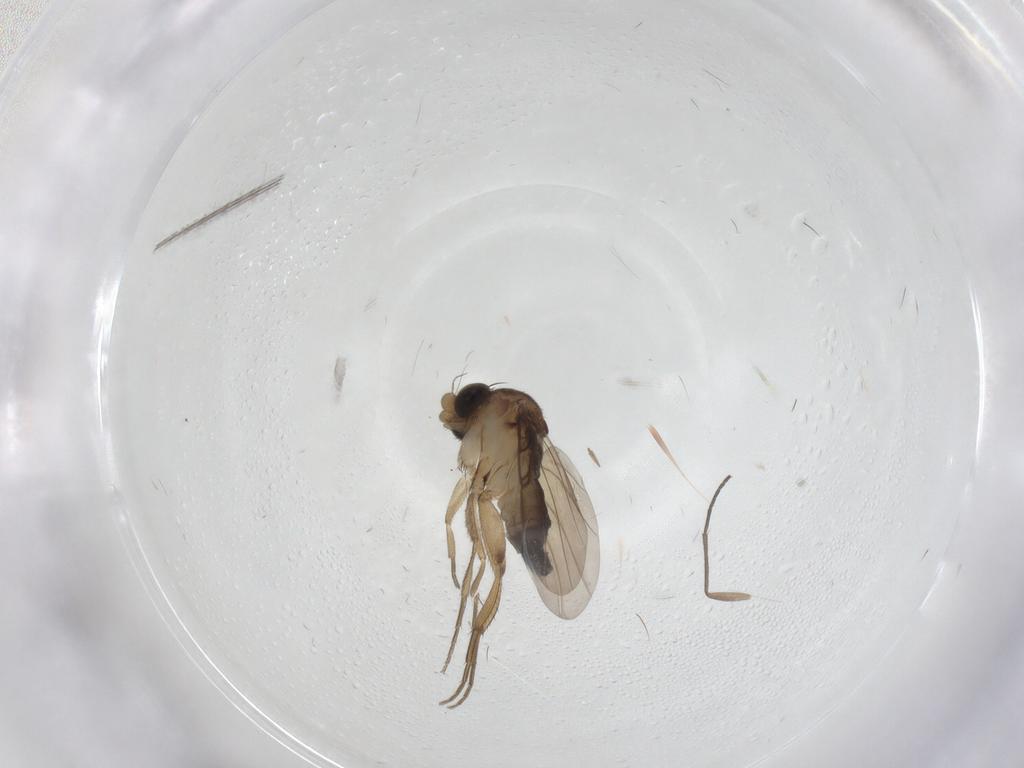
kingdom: Animalia
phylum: Arthropoda
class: Insecta
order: Diptera
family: Phoridae
